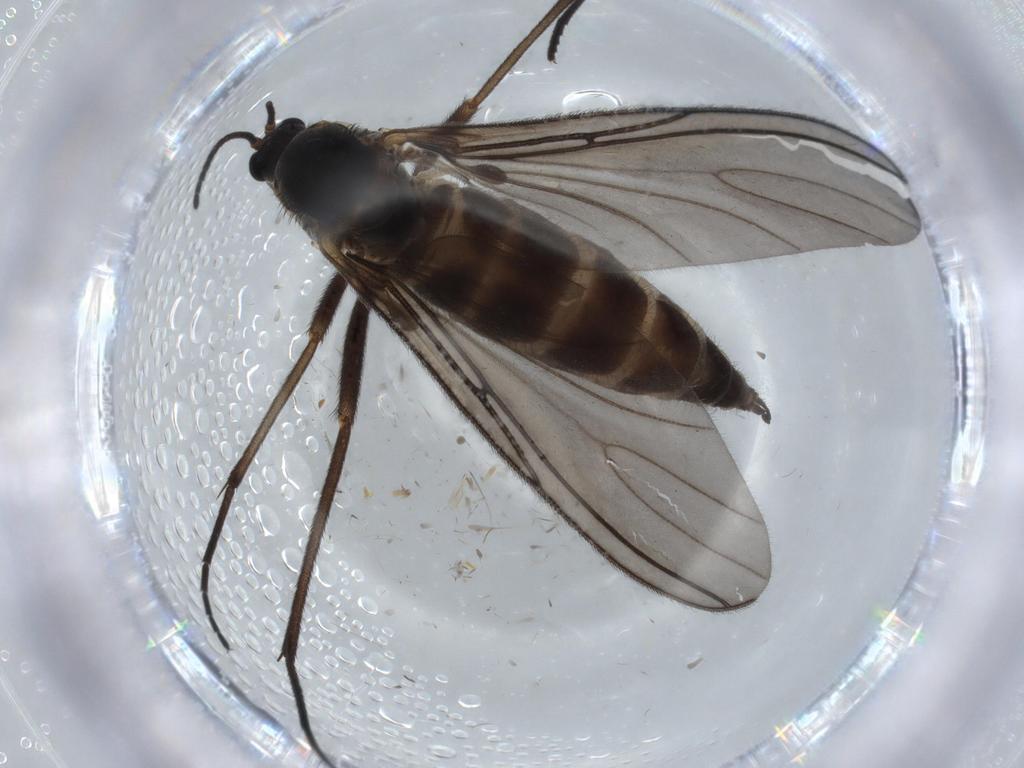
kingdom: Animalia
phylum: Arthropoda
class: Insecta
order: Diptera
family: Sciaridae
